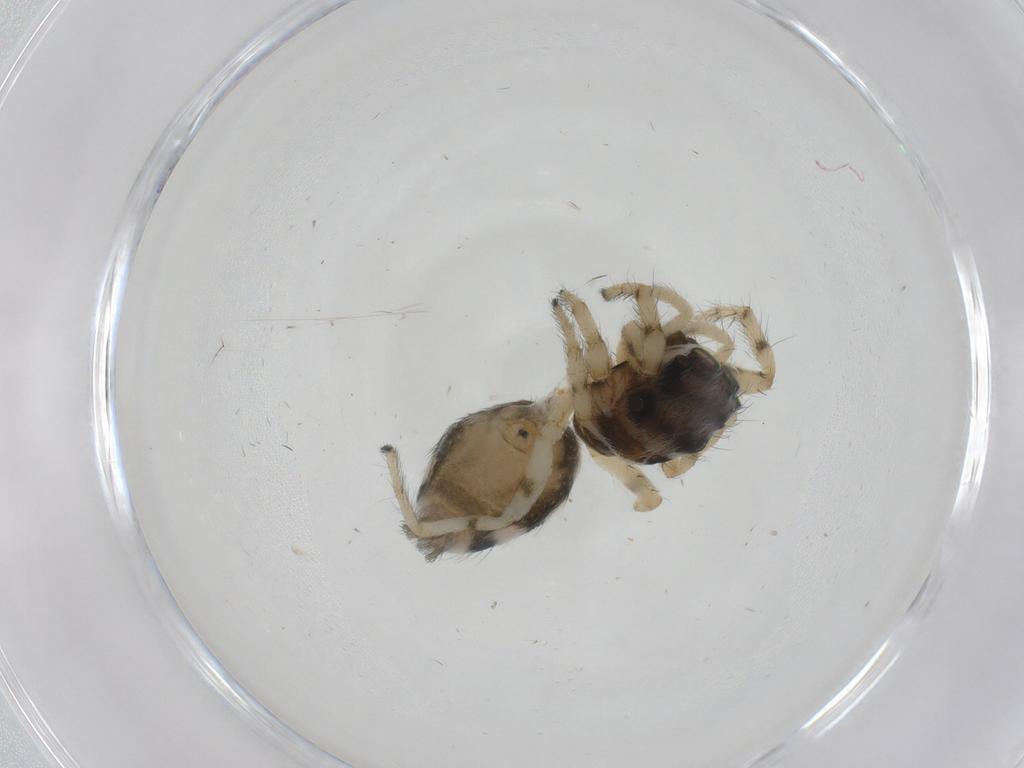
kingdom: Animalia
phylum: Arthropoda
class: Arachnida
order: Araneae
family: Salticidae
